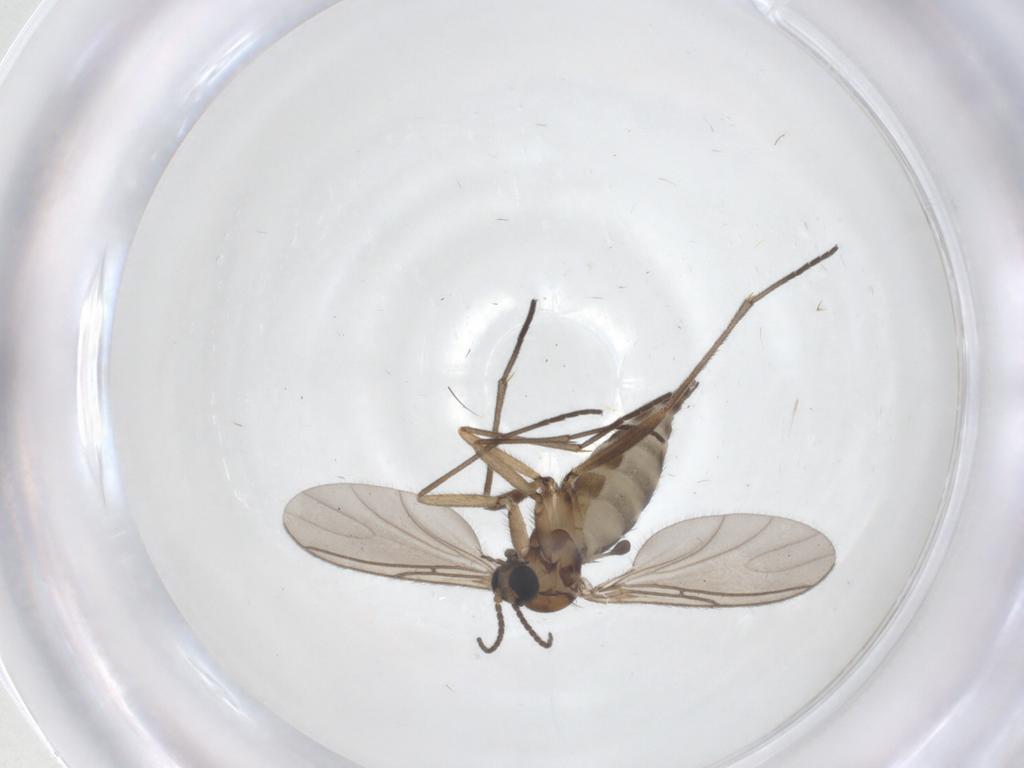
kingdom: Animalia
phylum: Arthropoda
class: Insecta
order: Diptera
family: Sciaridae
